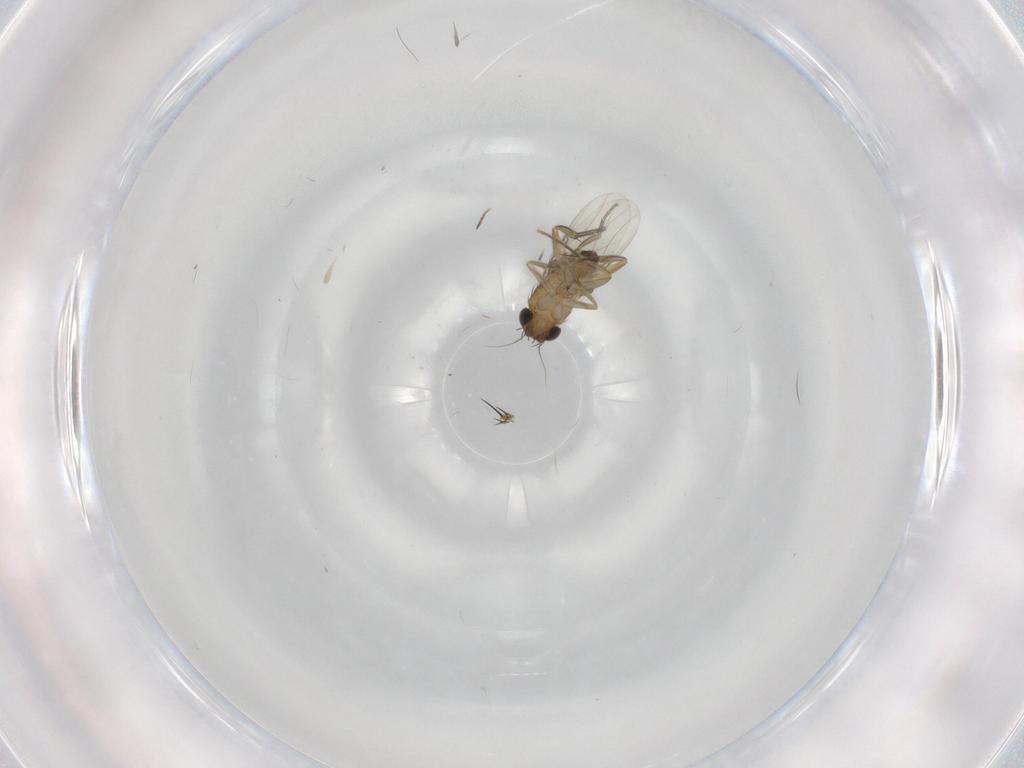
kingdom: Animalia
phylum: Arthropoda
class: Insecta
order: Diptera
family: Phoridae
